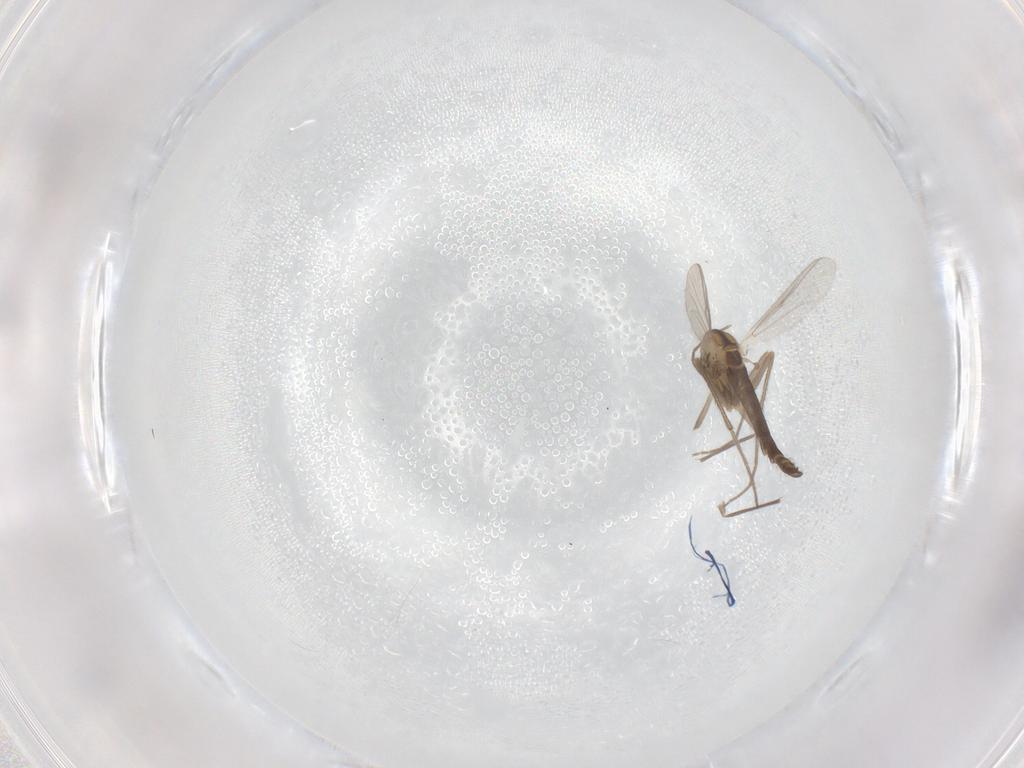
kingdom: Animalia
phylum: Arthropoda
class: Insecta
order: Diptera
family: Chironomidae
